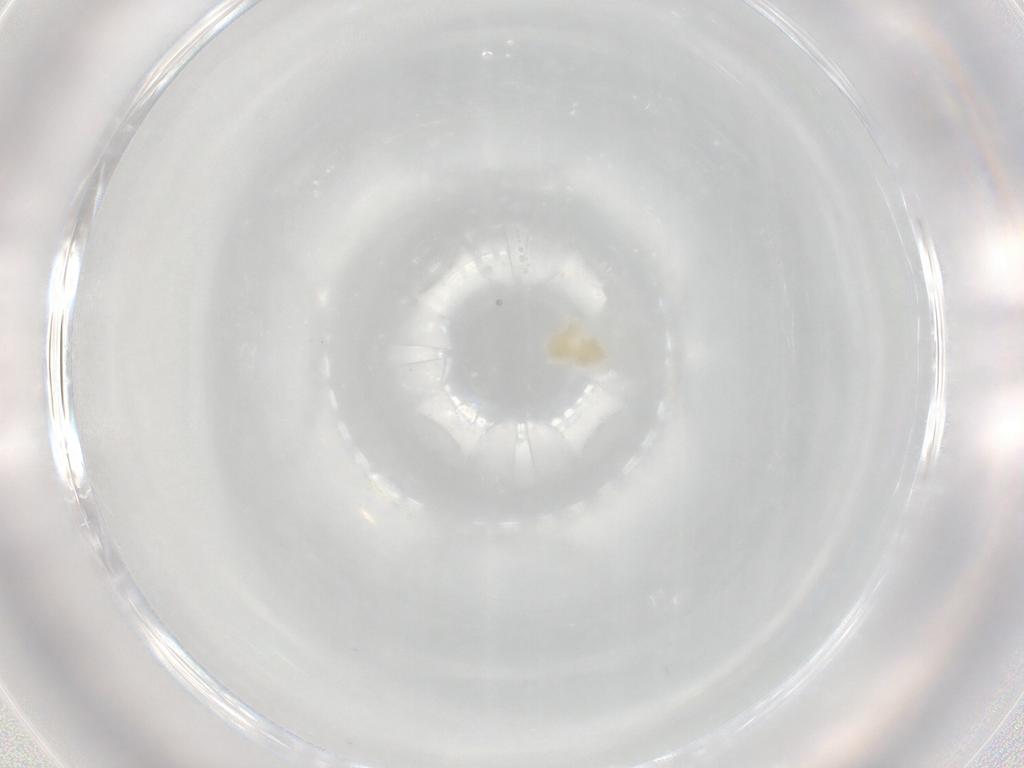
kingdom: Animalia
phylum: Arthropoda
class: Arachnida
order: Trombidiformes
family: Eupodidae
